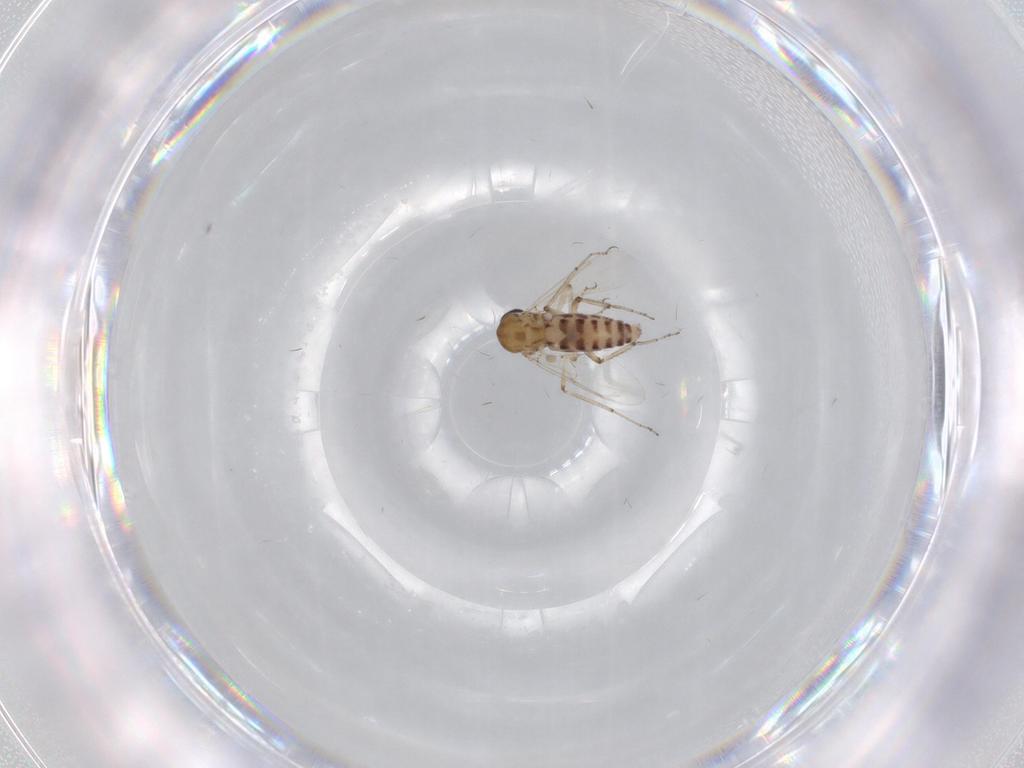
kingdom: Animalia
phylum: Arthropoda
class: Insecta
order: Diptera
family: Ceratopogonidae
